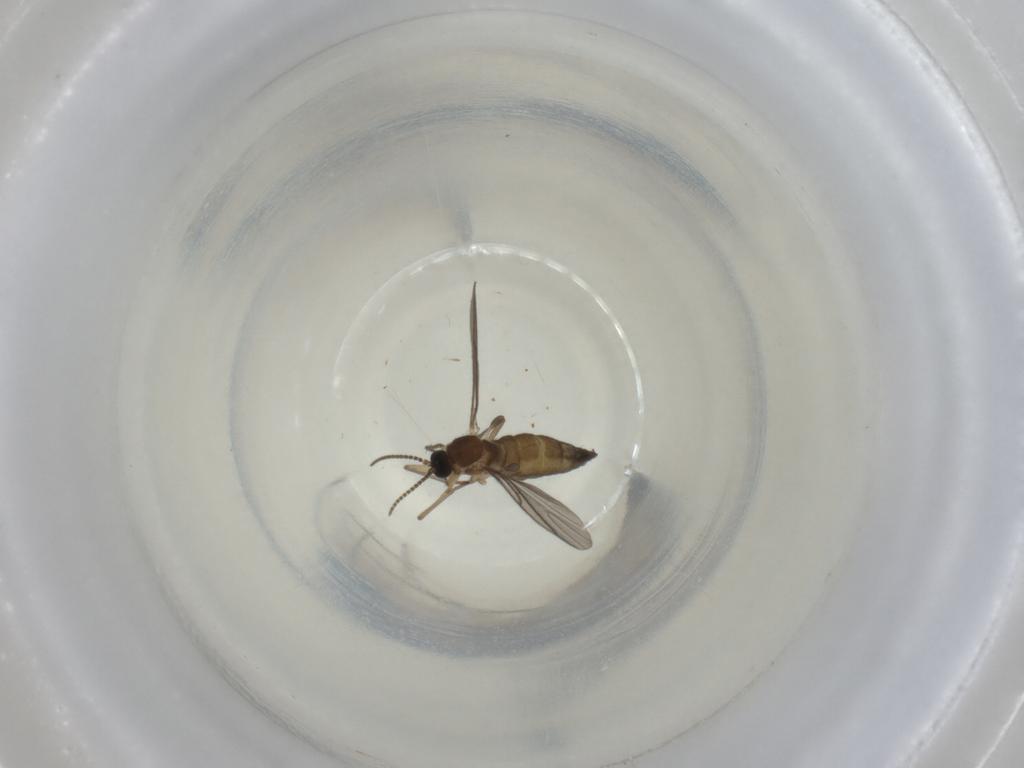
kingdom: Animalia
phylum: Arthropoda
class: Insecta
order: Diptera
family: Sciaridae
